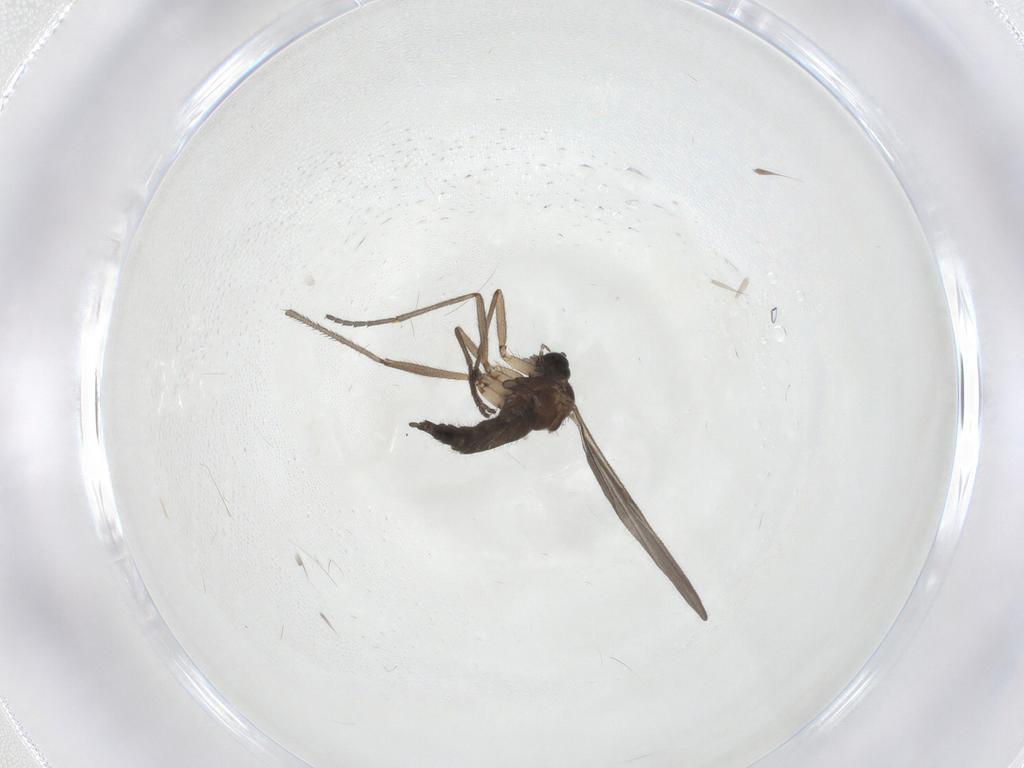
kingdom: Animalia
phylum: Arthropoda
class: Insecta
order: Diptera
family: Sciaridae
